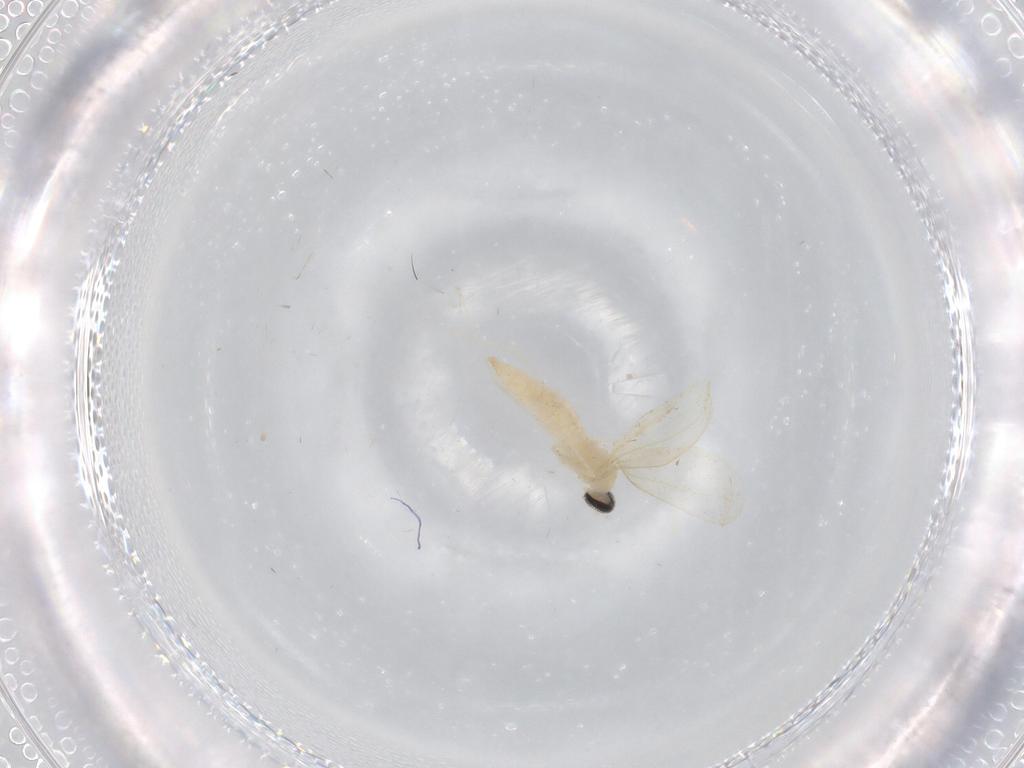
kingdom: Animalia
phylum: Arthropoda
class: Insecta
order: Diptera
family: Cecidomyiidae
